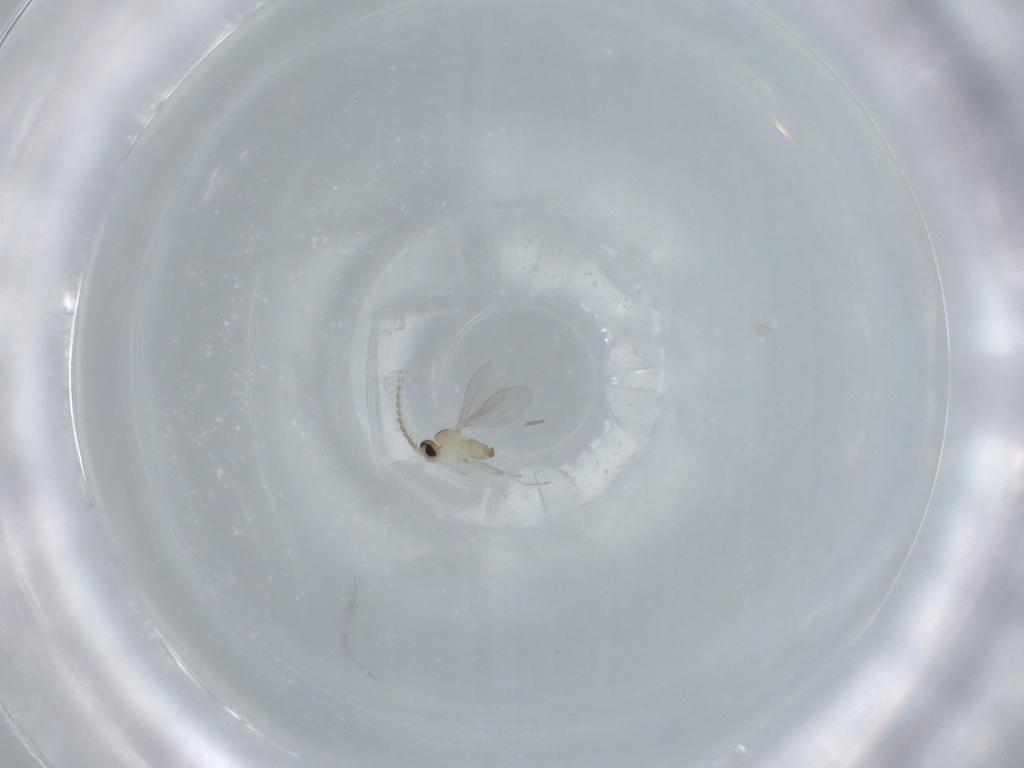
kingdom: Animalia
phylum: Arthropoda
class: Insecta
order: Diptera
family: Cecidomyiidae
